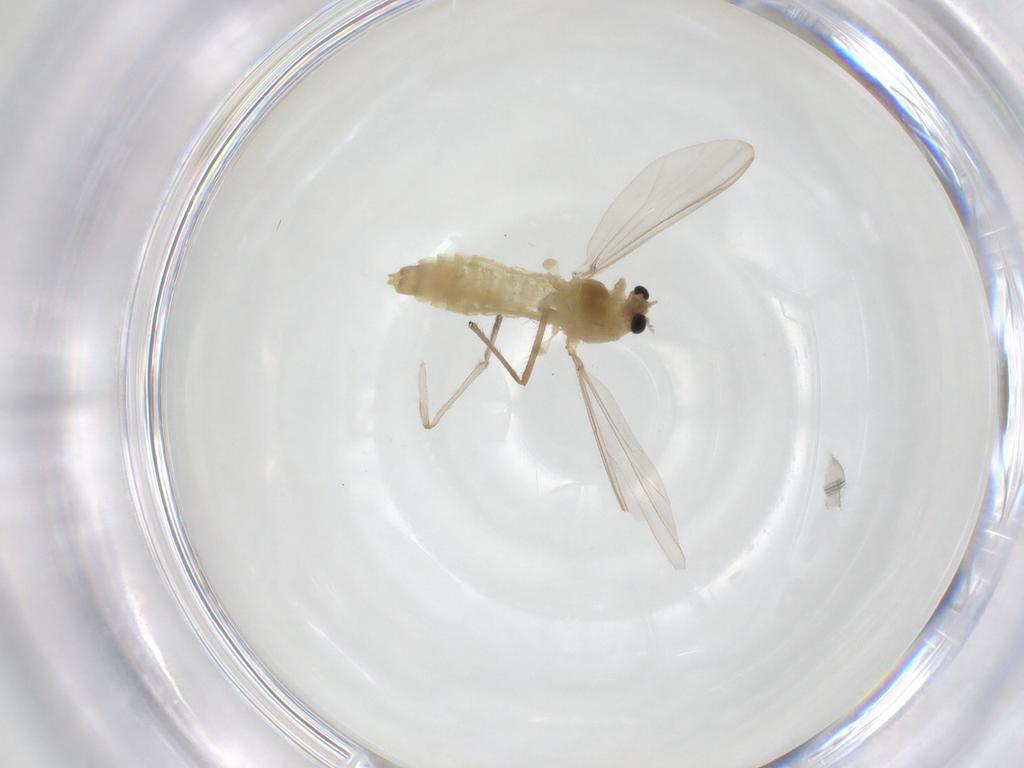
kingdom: Animalia
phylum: Arthropoda
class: Insecta
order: Diptera
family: Chironomidae
